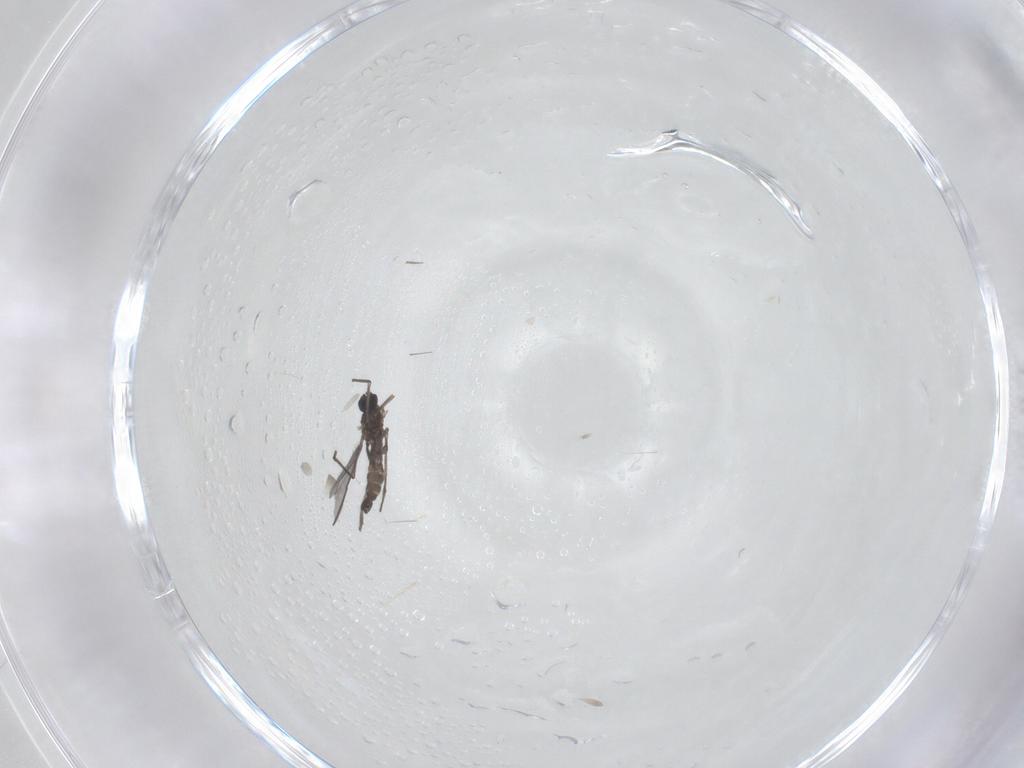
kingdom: Animalia
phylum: Arthropoda
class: Insecta
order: Diptera
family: Sciaridae
